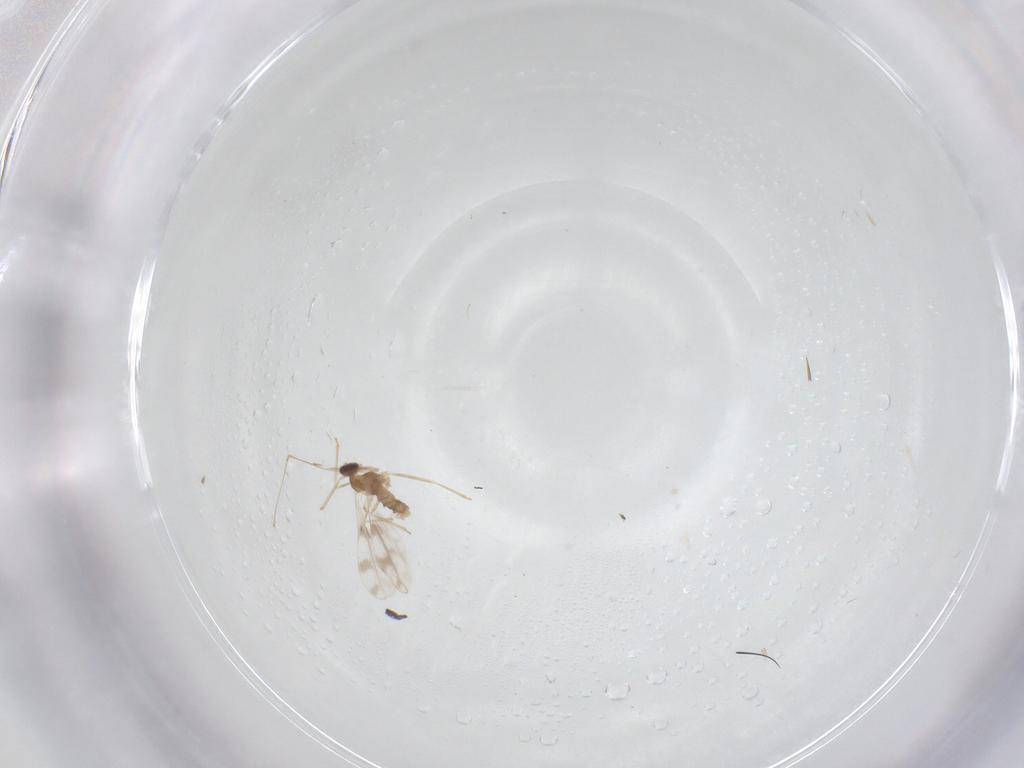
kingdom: Animalia
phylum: Arthropoda
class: Insecta
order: Diptera
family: Cecidomyiidae
